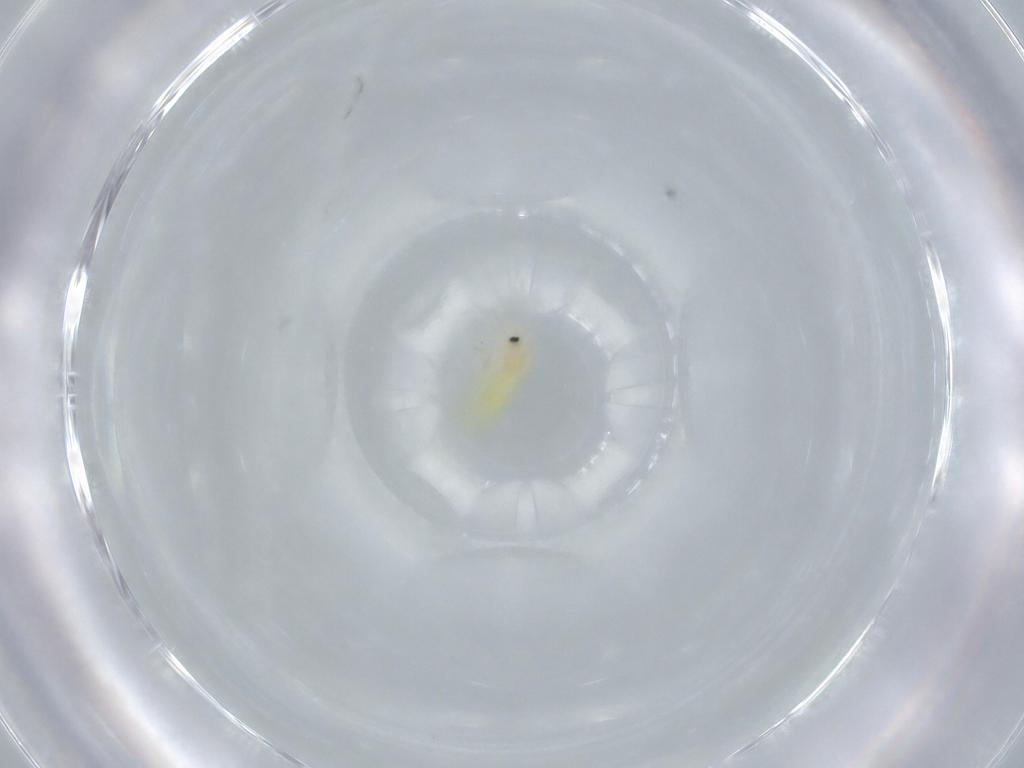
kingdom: Animalia
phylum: Arthropoda
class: Insecta
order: Hemiptera
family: Aleyrodidae
